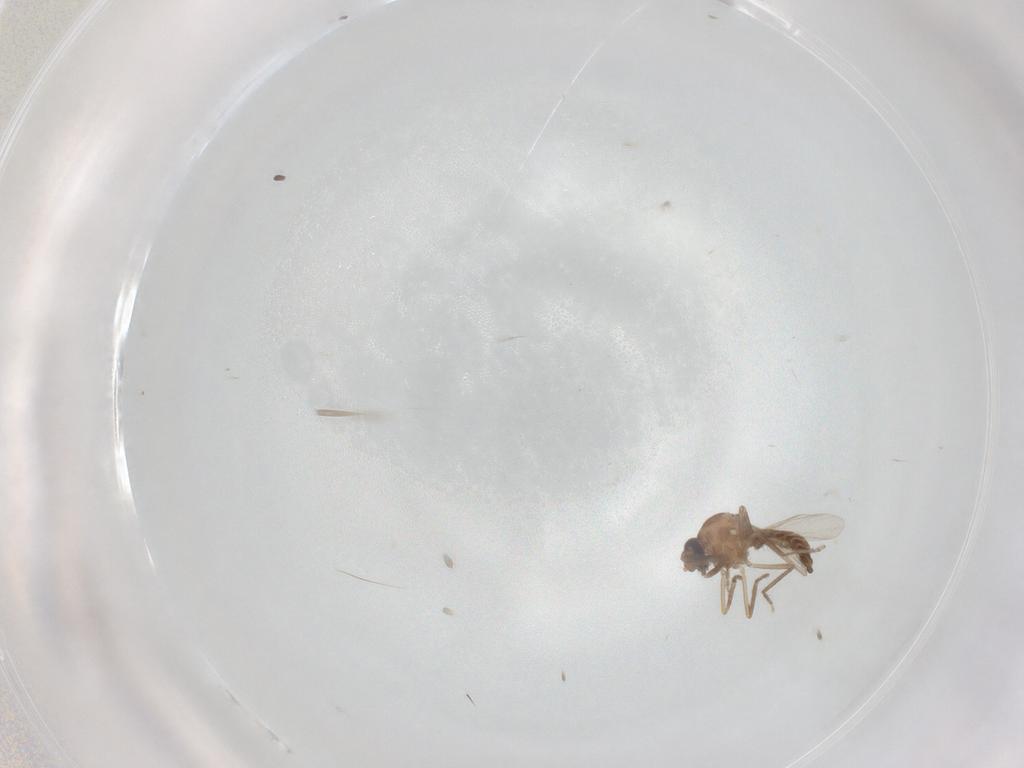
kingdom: Animalia
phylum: Arthropoda
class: Insecta
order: Diptera
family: Ceratopogonidae
